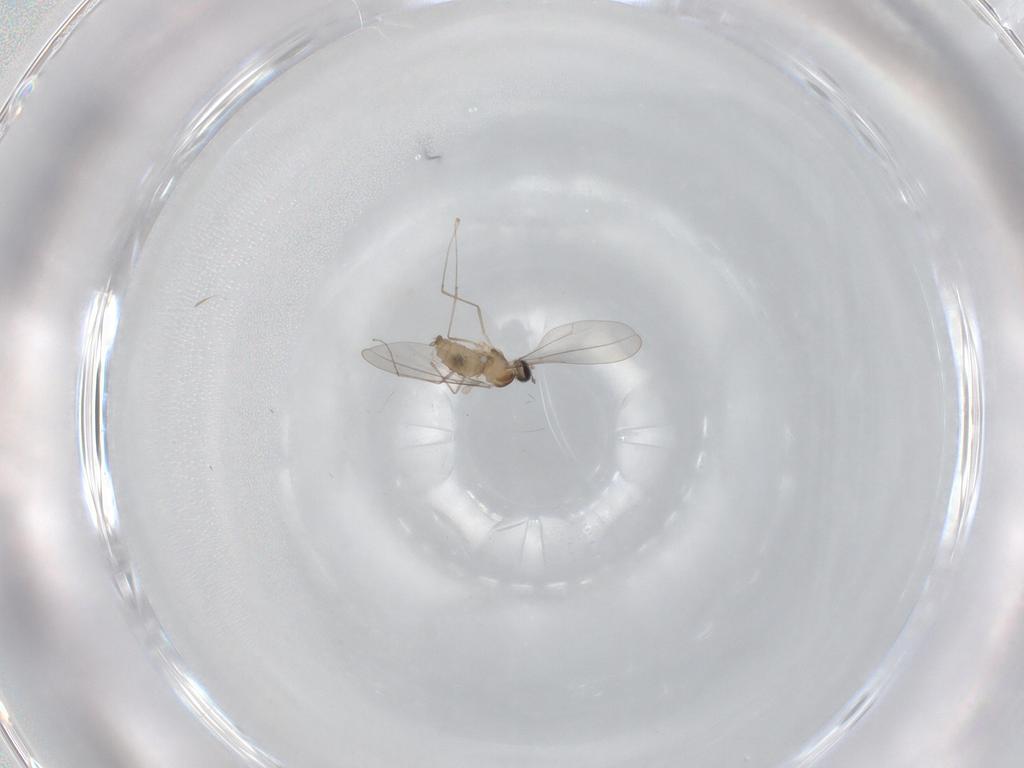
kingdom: Animalia
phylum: Arthropoda
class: Insecta
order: Diptera
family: Cecidomyiidae
